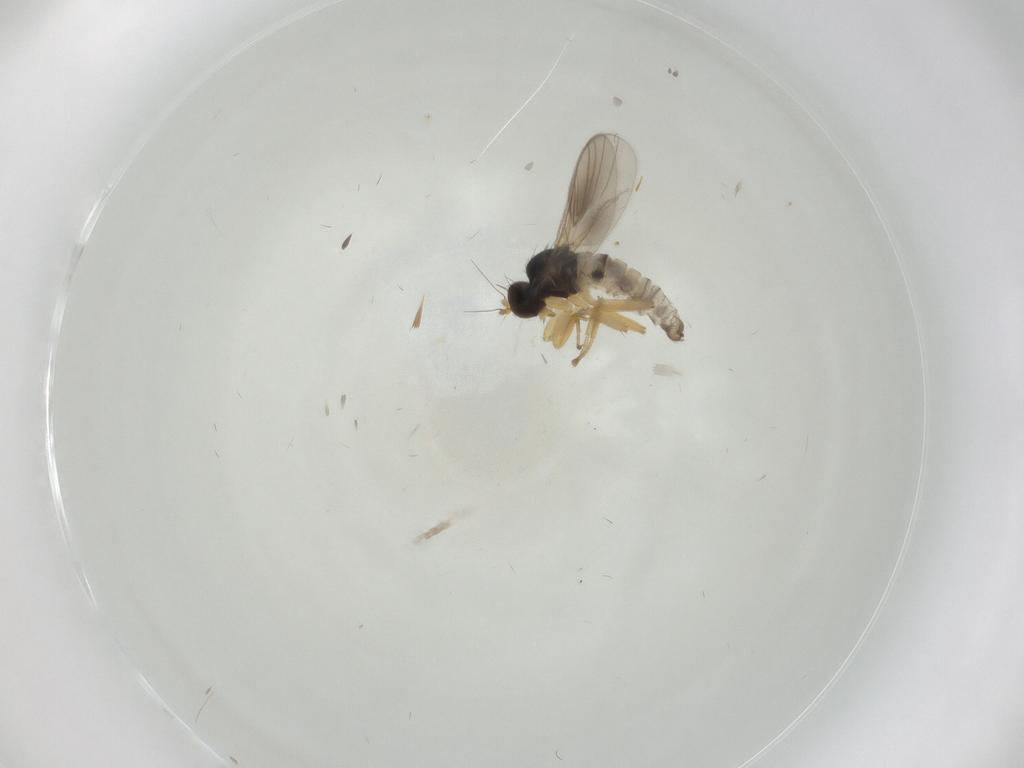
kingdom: Animalia
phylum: Arthropoda
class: Insecta
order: Diptera
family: Hybotidae
